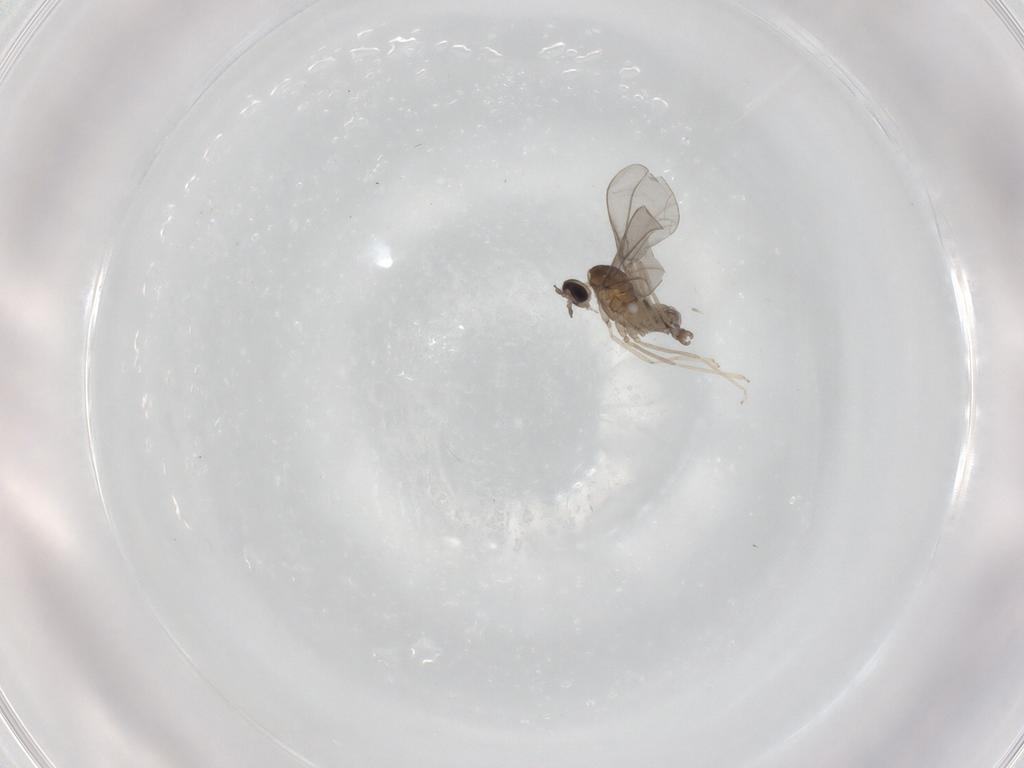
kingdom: Animalia
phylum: Arthropoda
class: Insecta
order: Diptera
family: Cecidomyiidae
